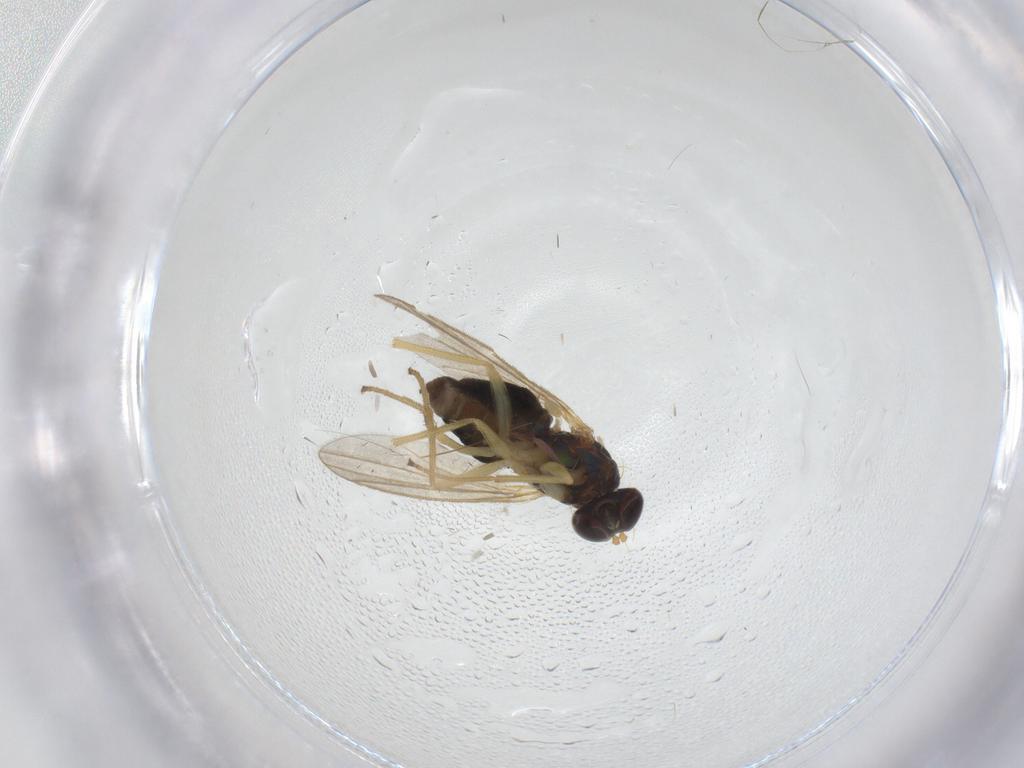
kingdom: Animalia
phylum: Arthropoda
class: Insecta
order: Diptera
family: Dolichopodidae
